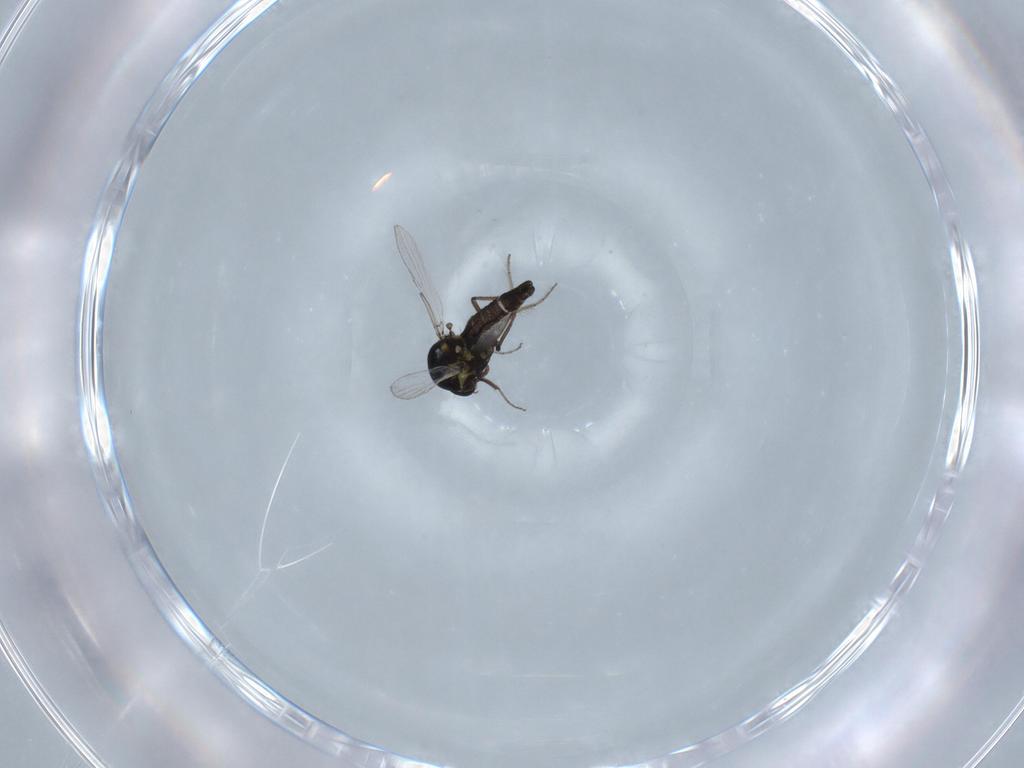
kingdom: Animalia
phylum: Arthropoda
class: Insecta
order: Diptera
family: Ceratopogonidae
